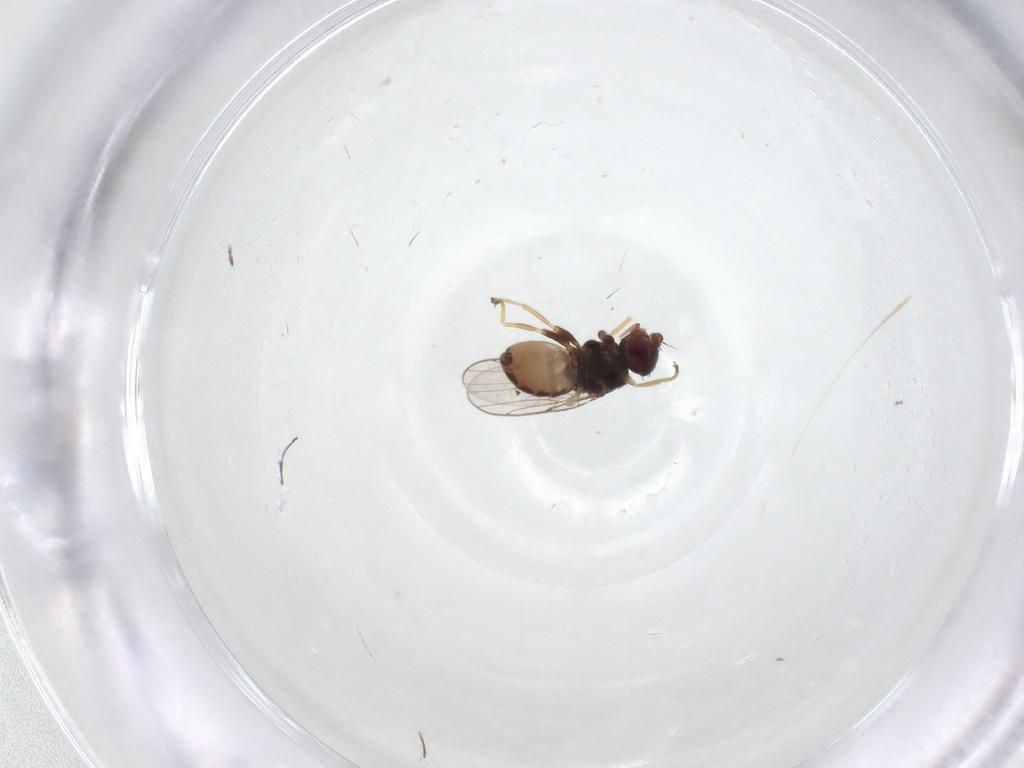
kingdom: Animalia
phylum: Arthropoda
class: Insecta
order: Diptera
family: Chloropidae
